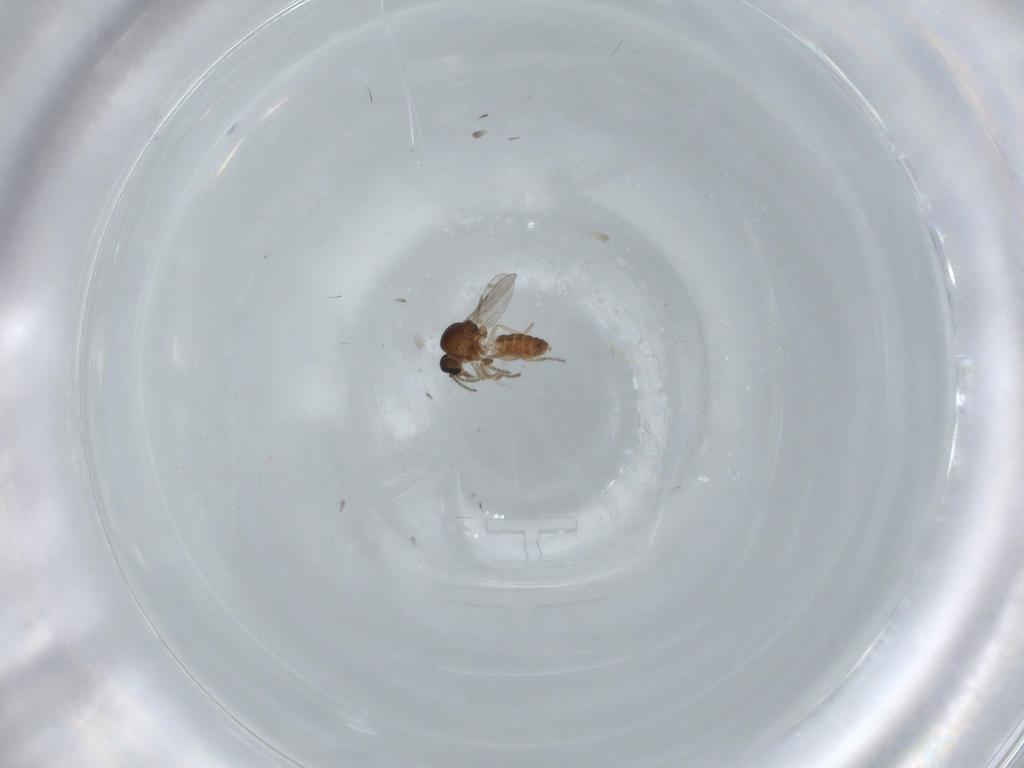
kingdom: Animalia
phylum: Arthropoda
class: Insecta
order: Diptera
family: Ceratopogonidae
